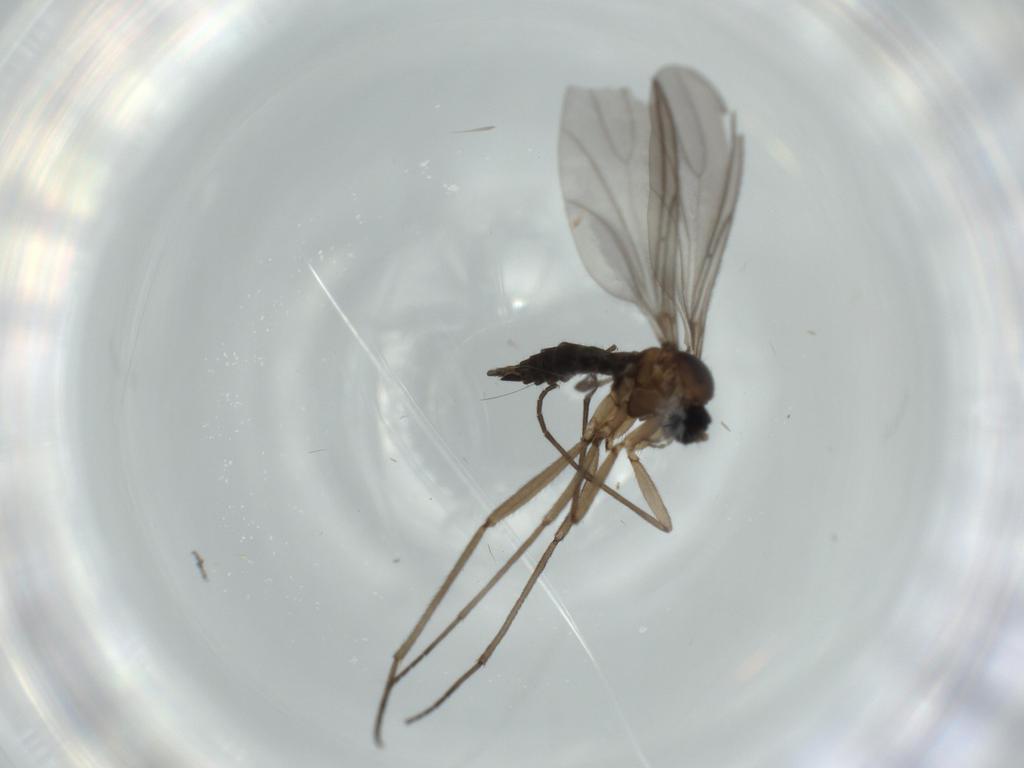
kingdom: Animalia
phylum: Arthropoda
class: Insecta
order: Diptera
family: Sciaridae
